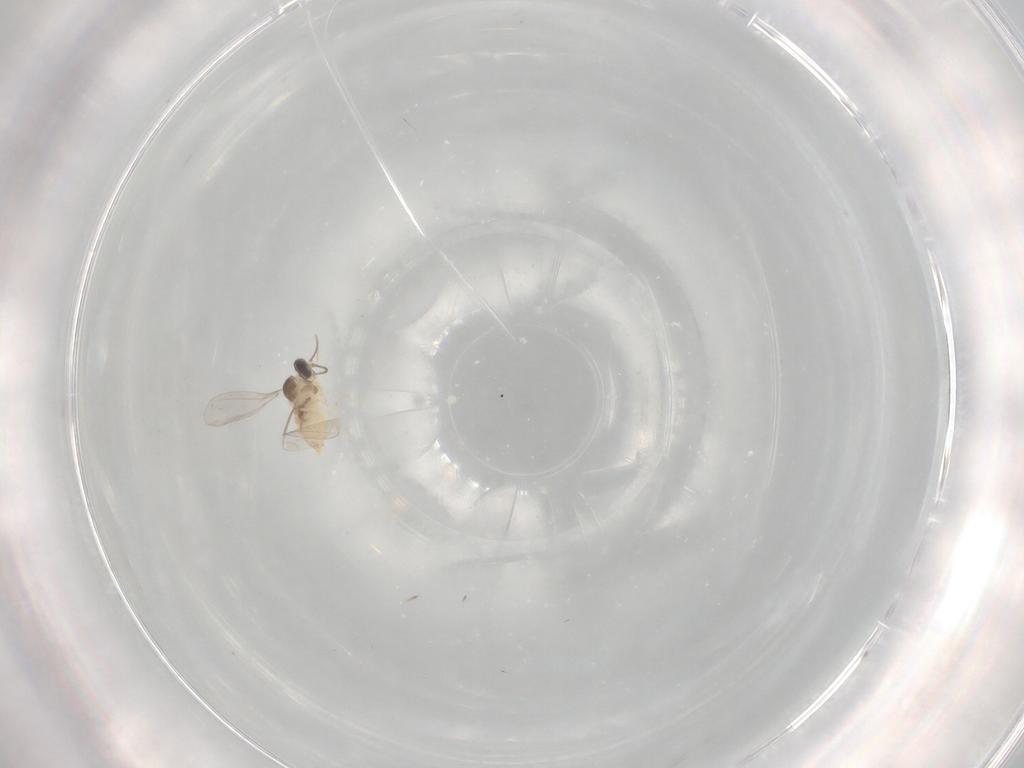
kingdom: Animalia
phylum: Arthropoda
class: Insecta
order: Diptera
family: Cecidomyiidae
